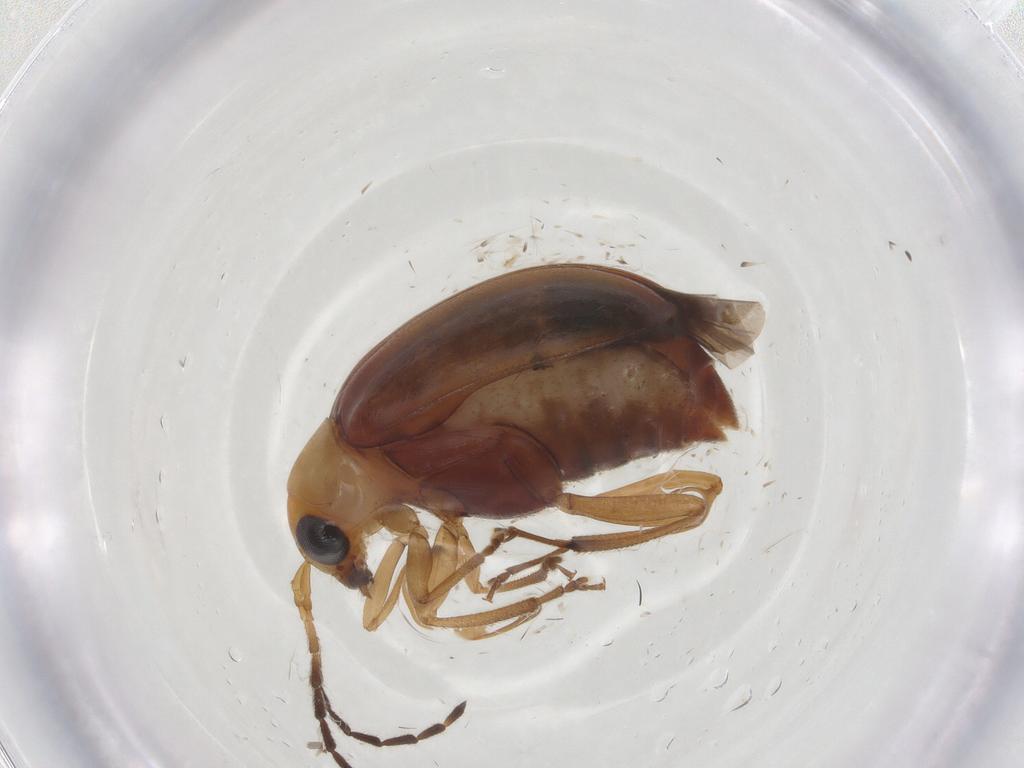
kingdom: Animalia
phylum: Arthropoda
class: Insecta
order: Coleoptera
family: Chrysomelidae
